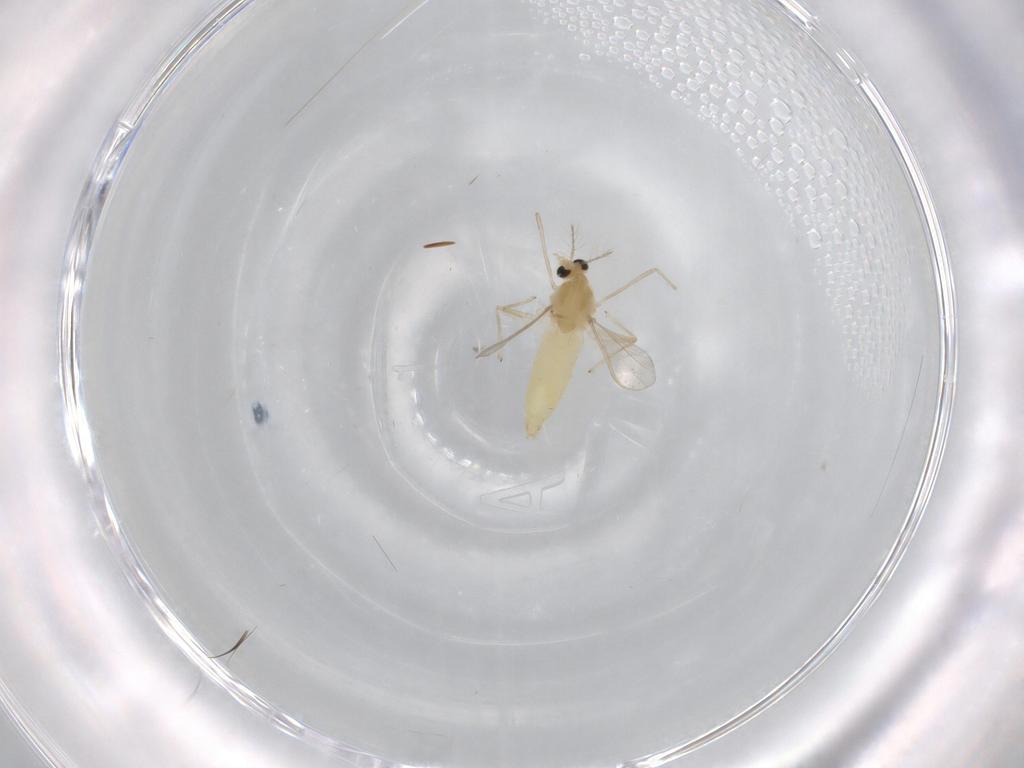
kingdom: Animalia
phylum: Arthropoda
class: Insecta
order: Diptera
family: Chironomidae
